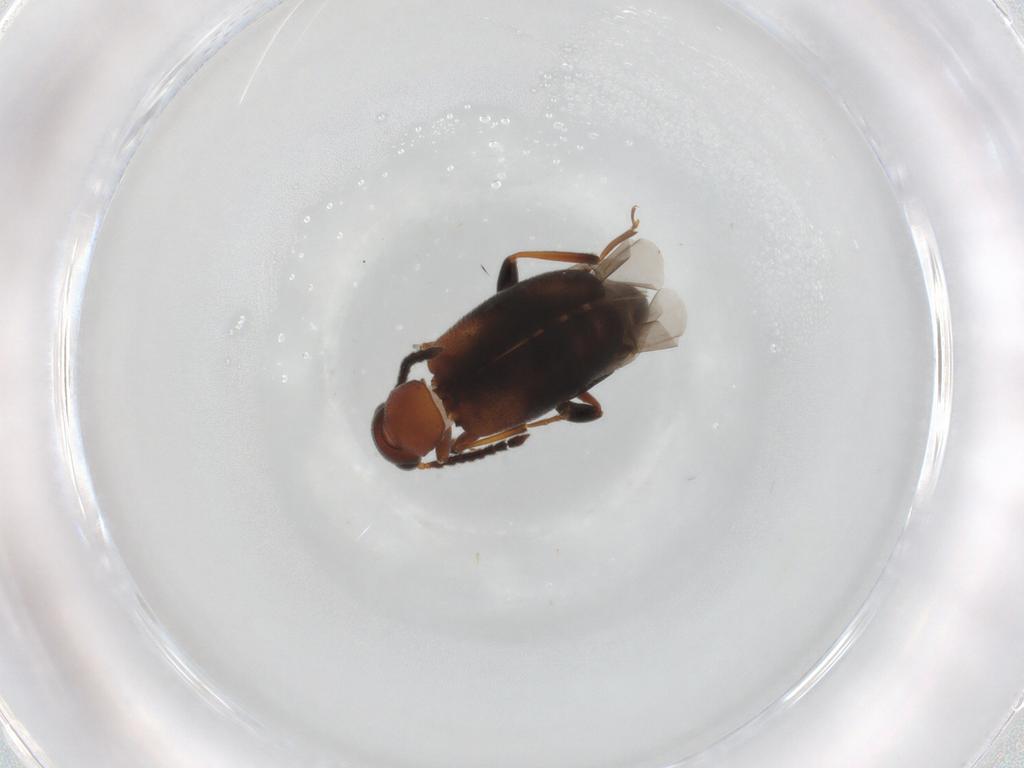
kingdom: Animalia
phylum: Arthropoda
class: Insecta
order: Coleoptera
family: Aderidae
